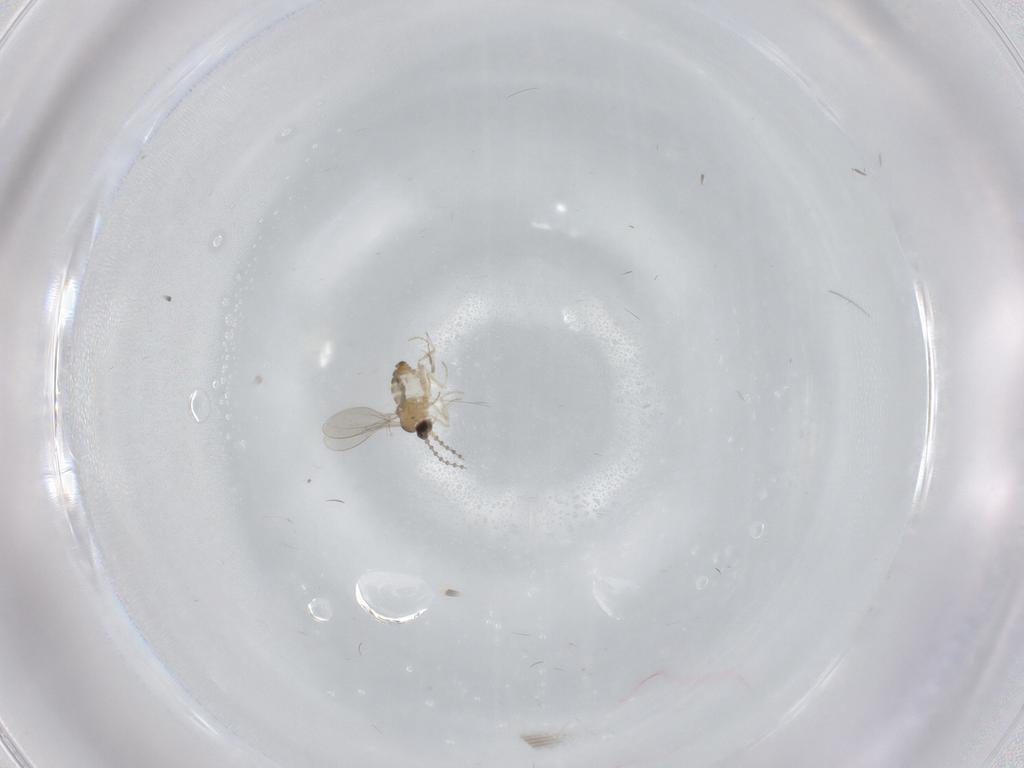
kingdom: Animalia
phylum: Arthropoda
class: Insecta
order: Diptera
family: Cecidomyiidae
